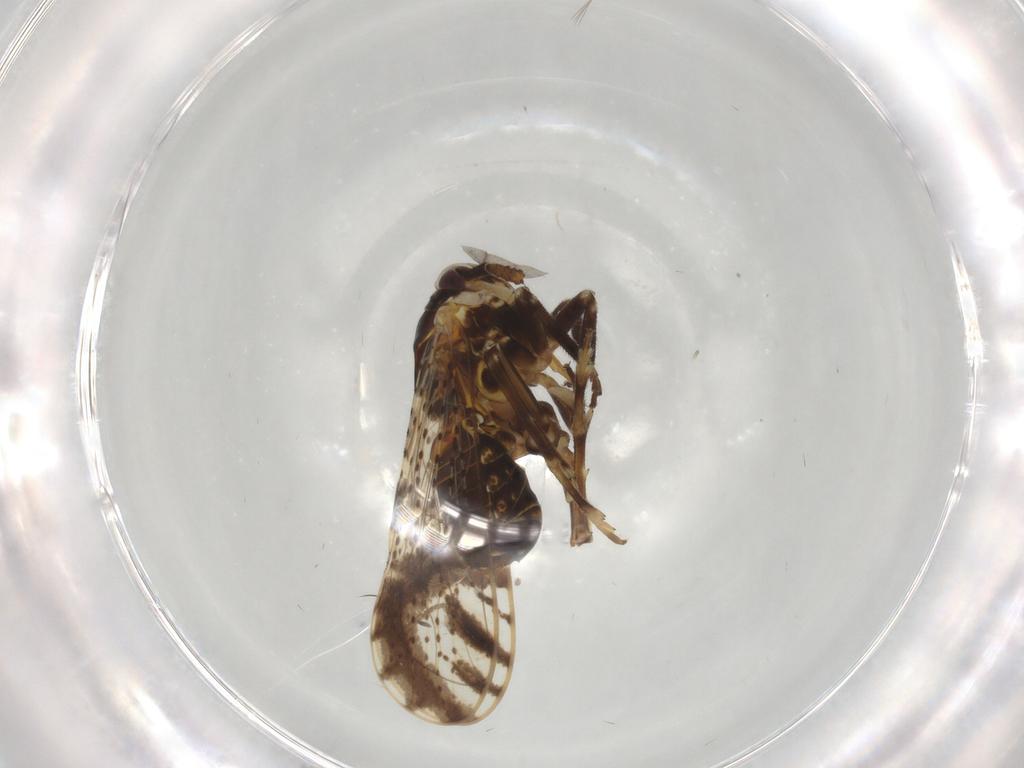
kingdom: Animalia
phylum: Arthropoda
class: Insecta
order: Hemiptera
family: Delphacidae
